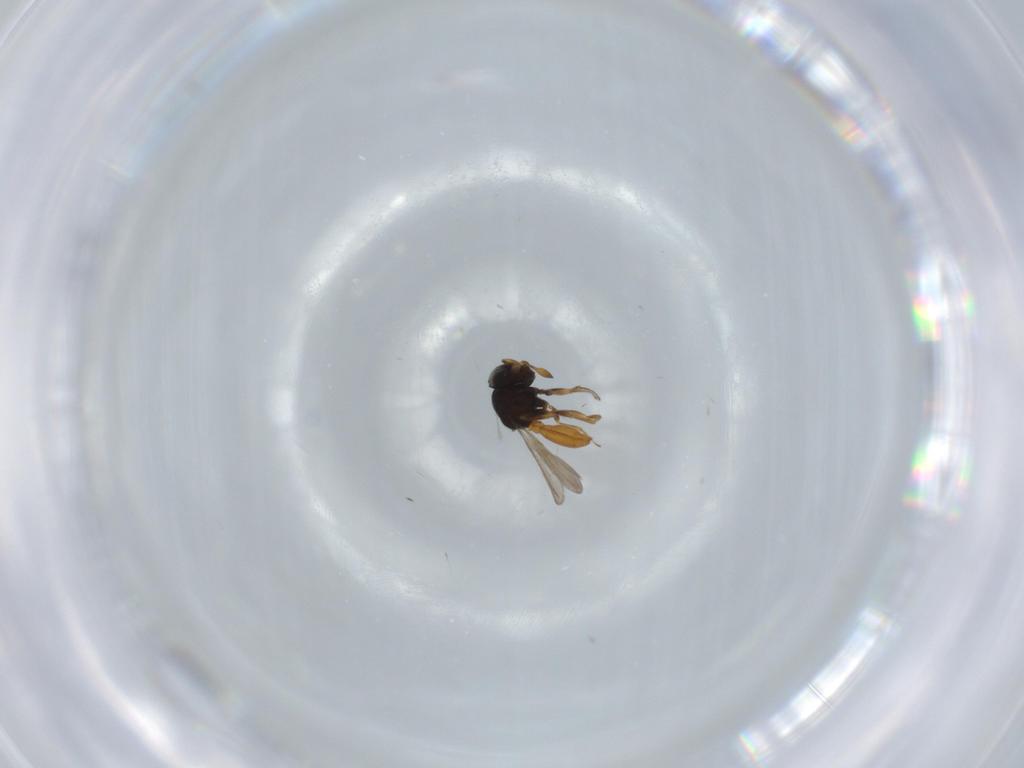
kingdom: Animalia
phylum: Arthropoda
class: Insecta
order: Hymenoptera
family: Scelionidae
